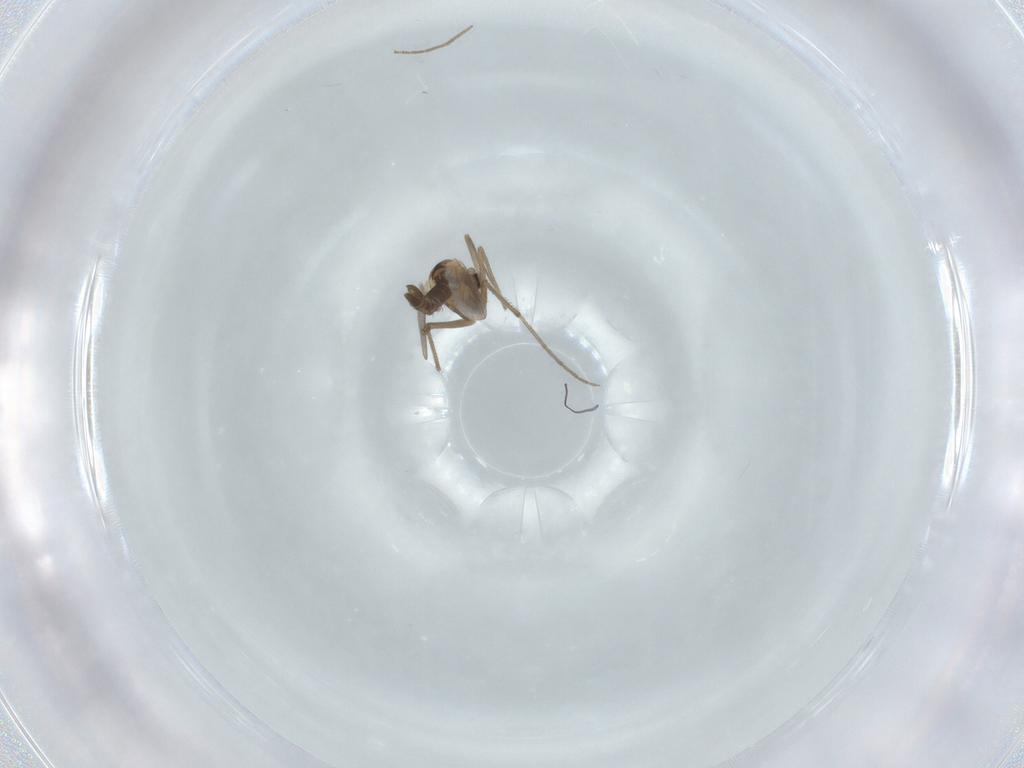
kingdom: Animalia
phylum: Arthropoda
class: Insecta
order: Diptera
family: Chironomidae
